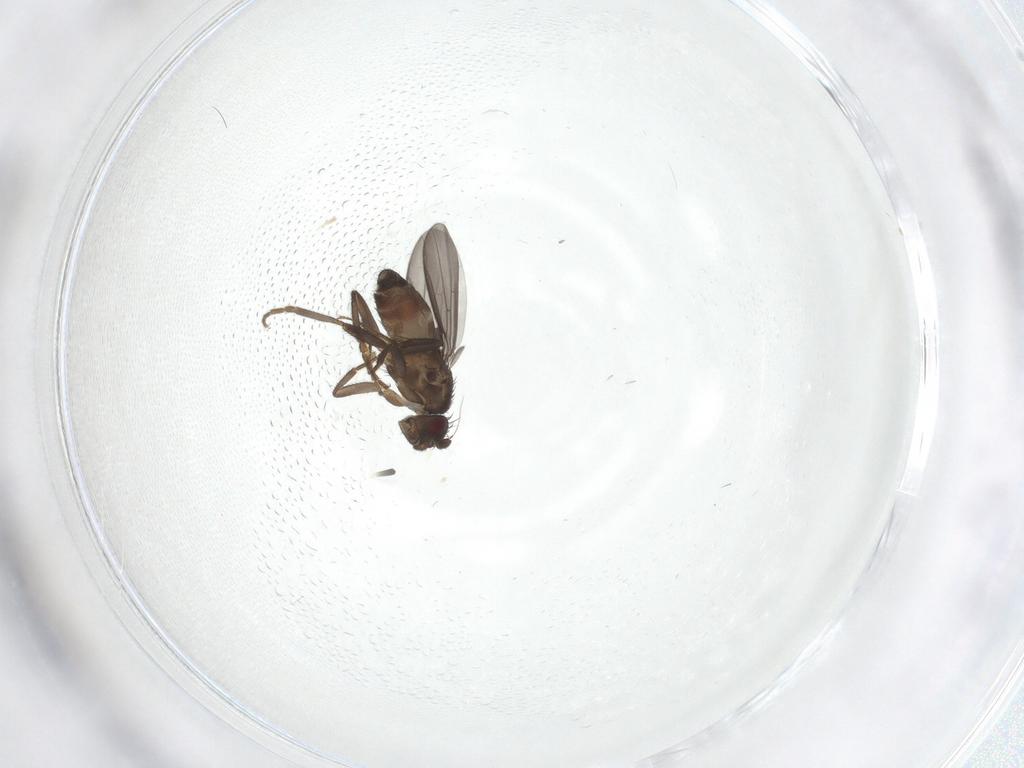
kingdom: Animalia
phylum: Arthropoda
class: Insecta
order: Diptera
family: Sphaeroceridae
